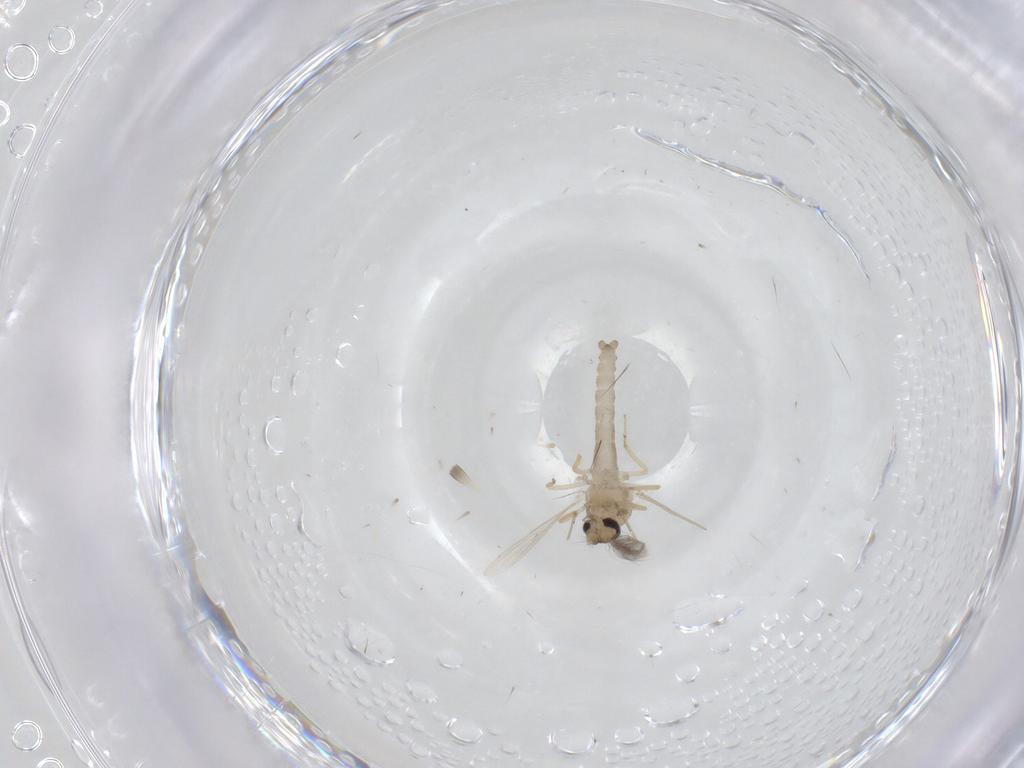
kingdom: Animalia
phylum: Arthropoda
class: Insecta
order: Diptera
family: Ceratopogonidae
